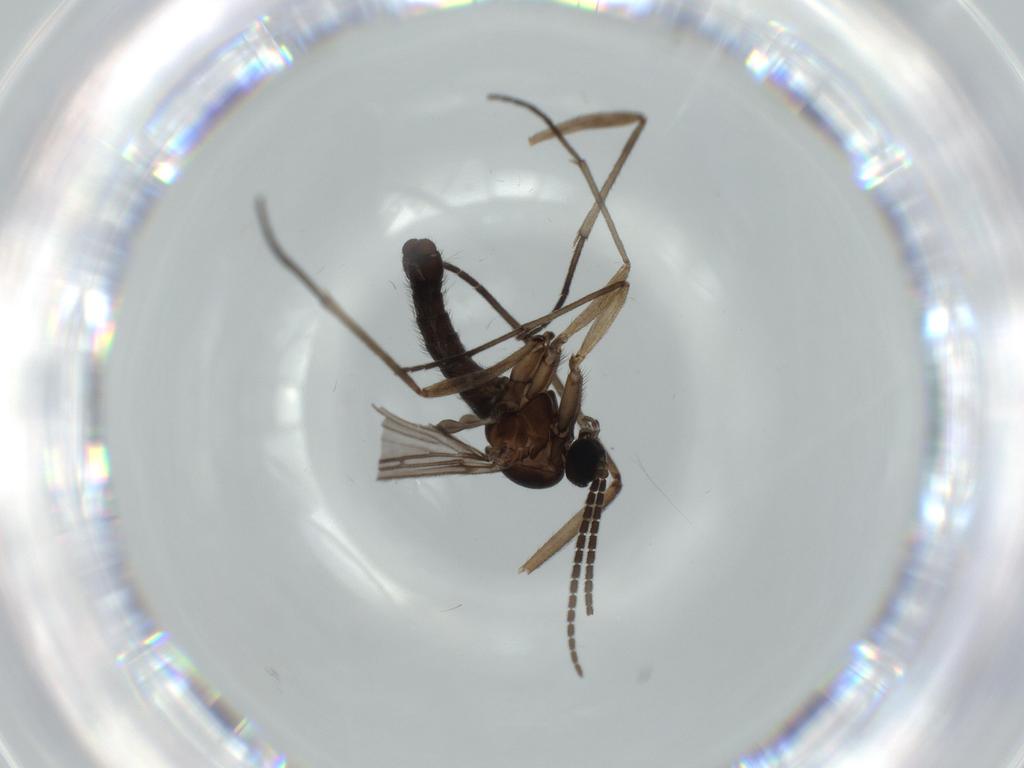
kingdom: Animalia
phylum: Arthropoda
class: Insecta
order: Diptera
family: Sciaridae
